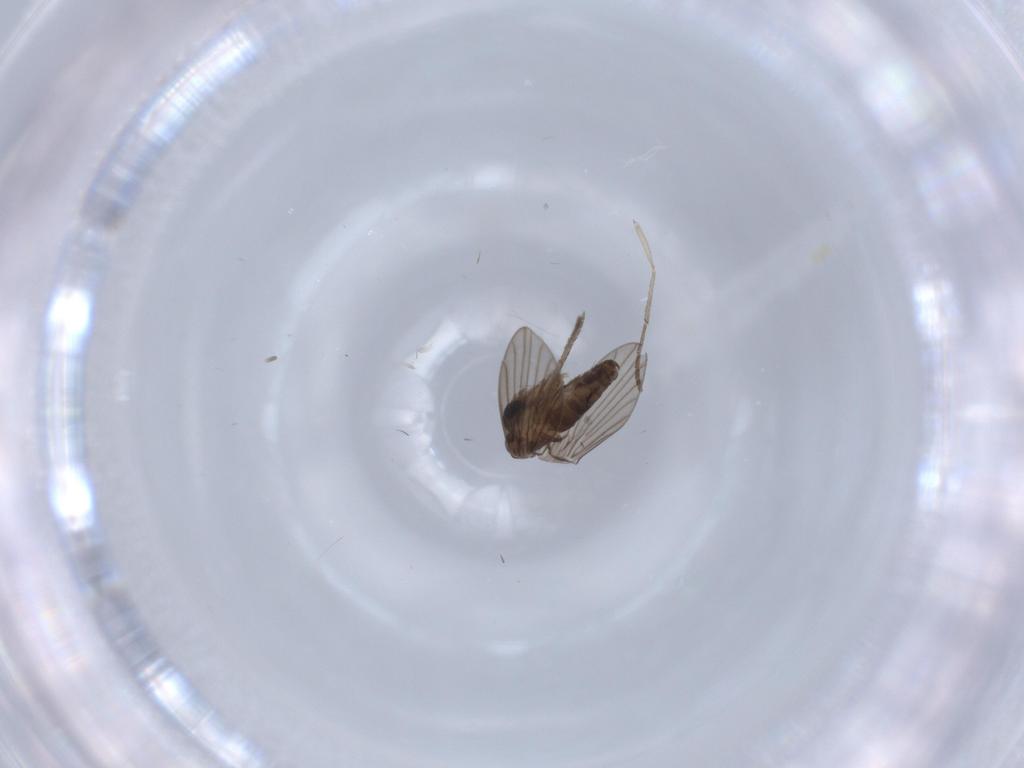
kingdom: Animalia
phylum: Arthropoda
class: Insecta
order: Diptera
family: Psychodidae
